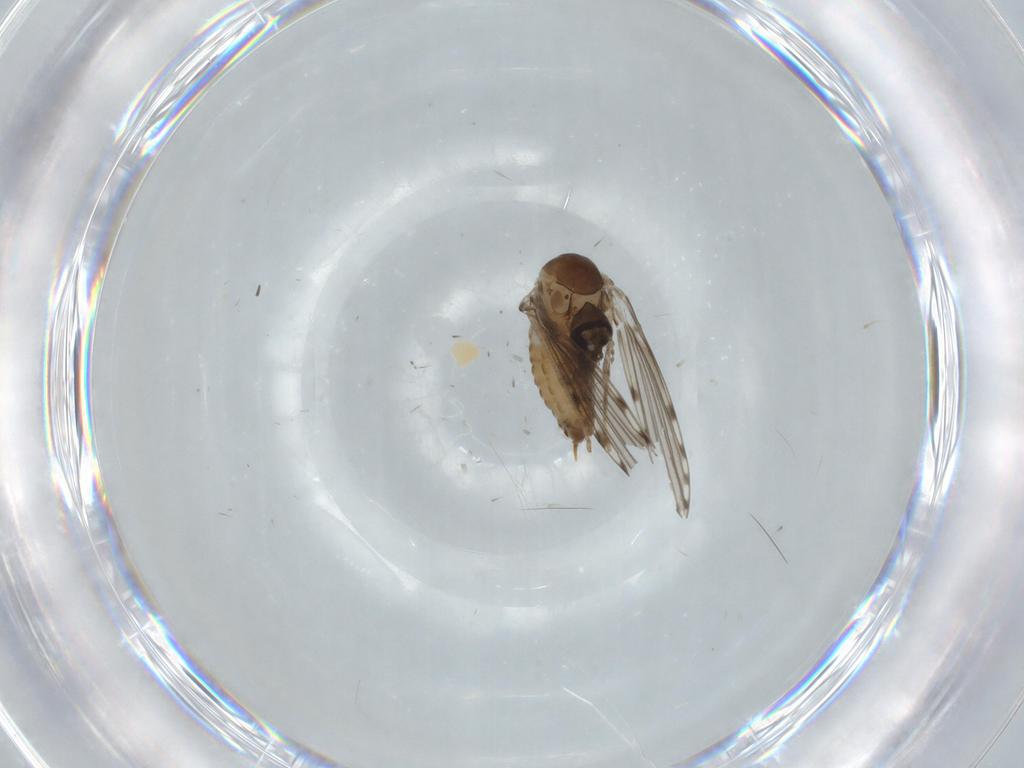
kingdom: Animalia
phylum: Arthropoda
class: Insecta
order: Diptera
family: Psychodidae
